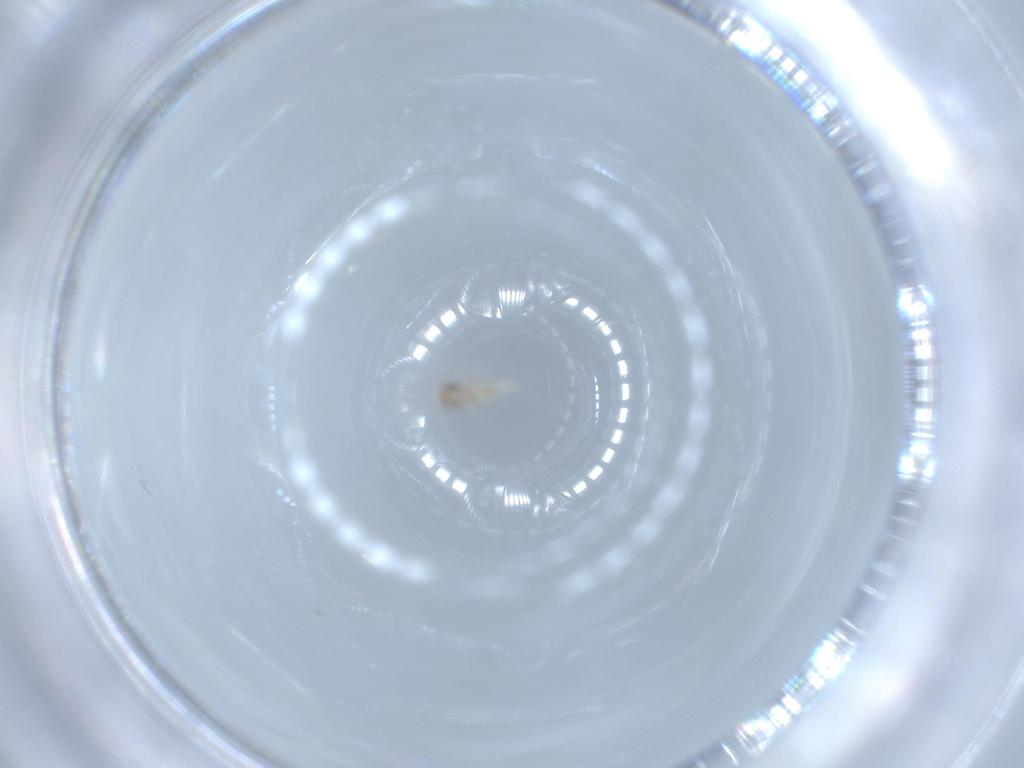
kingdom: Animalia
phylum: Arthropoda
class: Insecta
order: Psocodea
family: Lepidopsocidae
